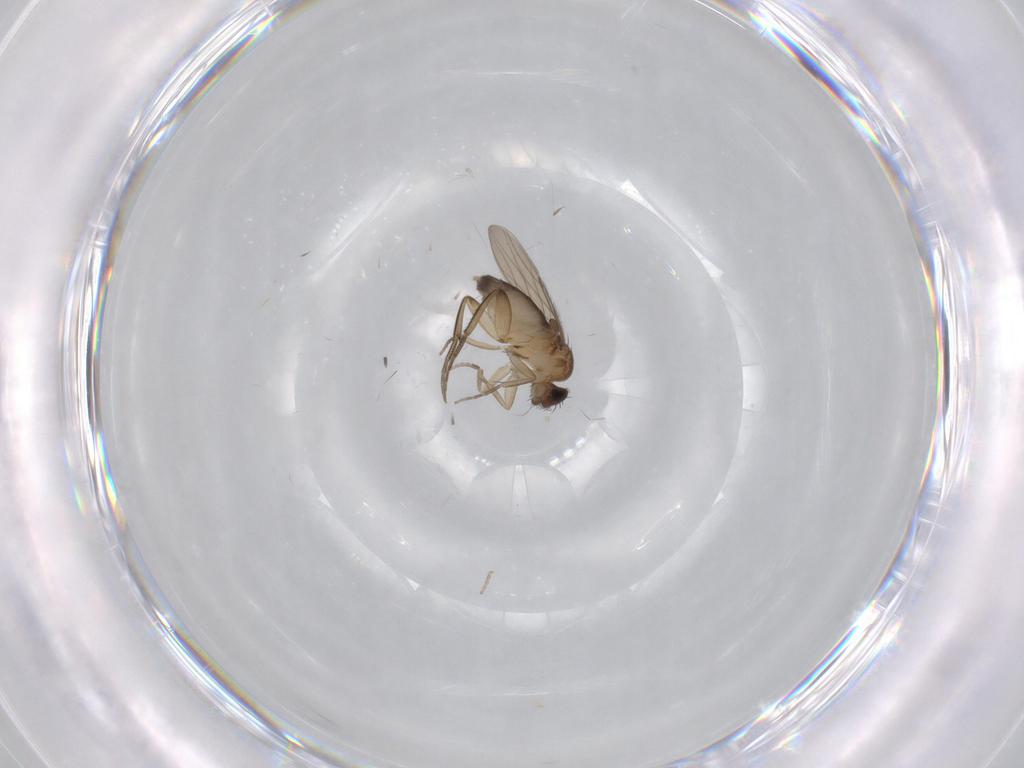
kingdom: Animalia
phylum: Arthropoda
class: Insecta
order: Diptera
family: Phoridae
